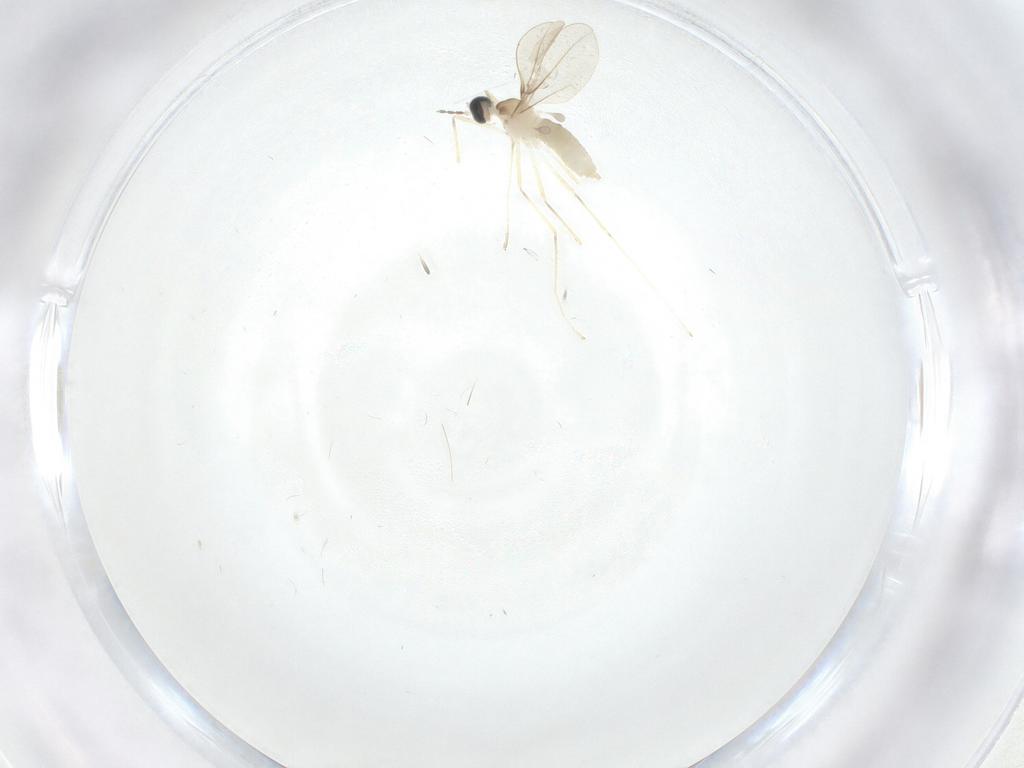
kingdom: Animalia
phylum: Arthropoda
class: Insecta
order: Diptera
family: Cecidomyiidae
